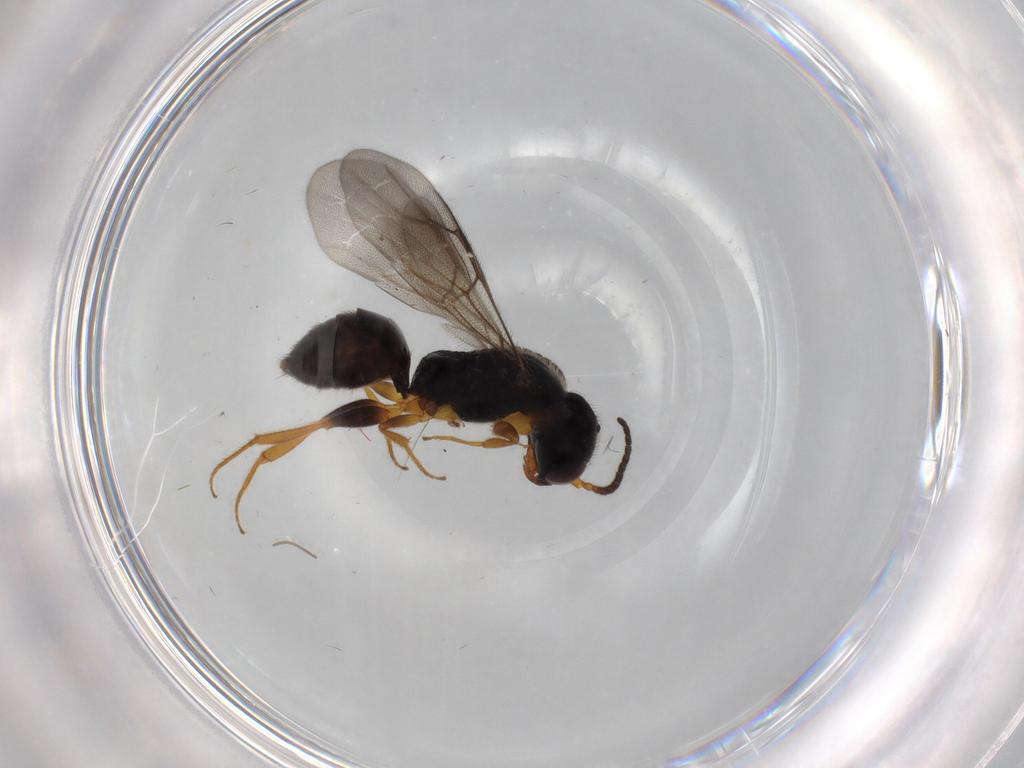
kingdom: Animalia
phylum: Arthropoda
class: Insecta
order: Hymenoptera
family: Bethylidae
